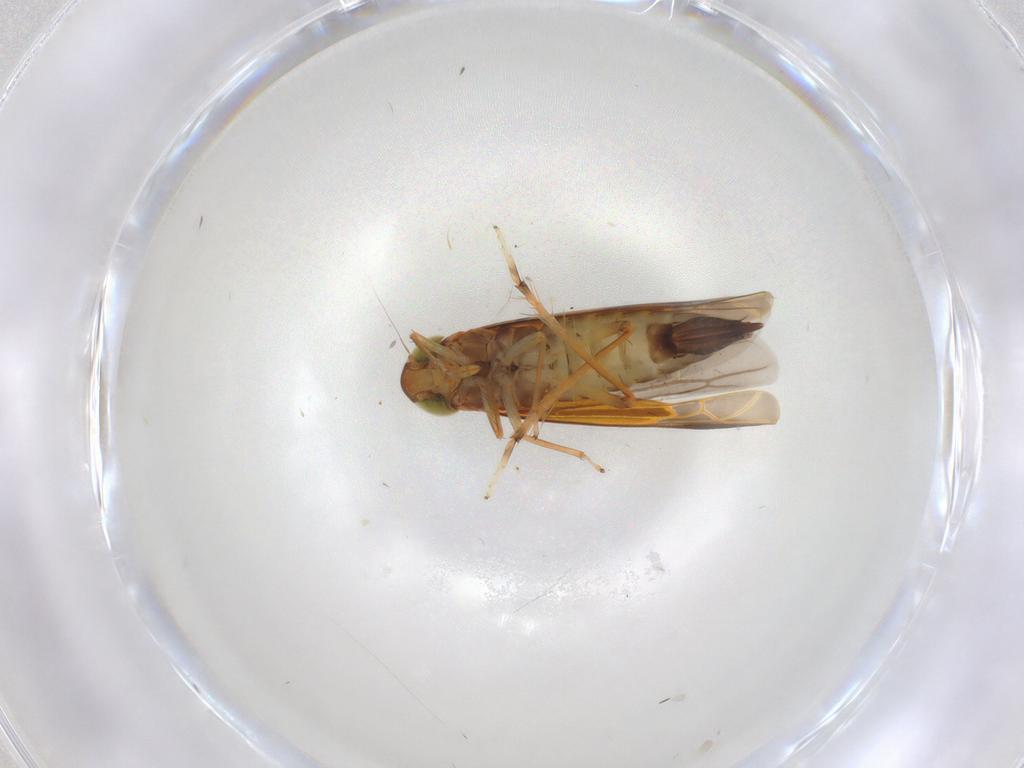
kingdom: Animalia
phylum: Arthropoda
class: Insecta
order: Hemiptera
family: Cicadellidae
